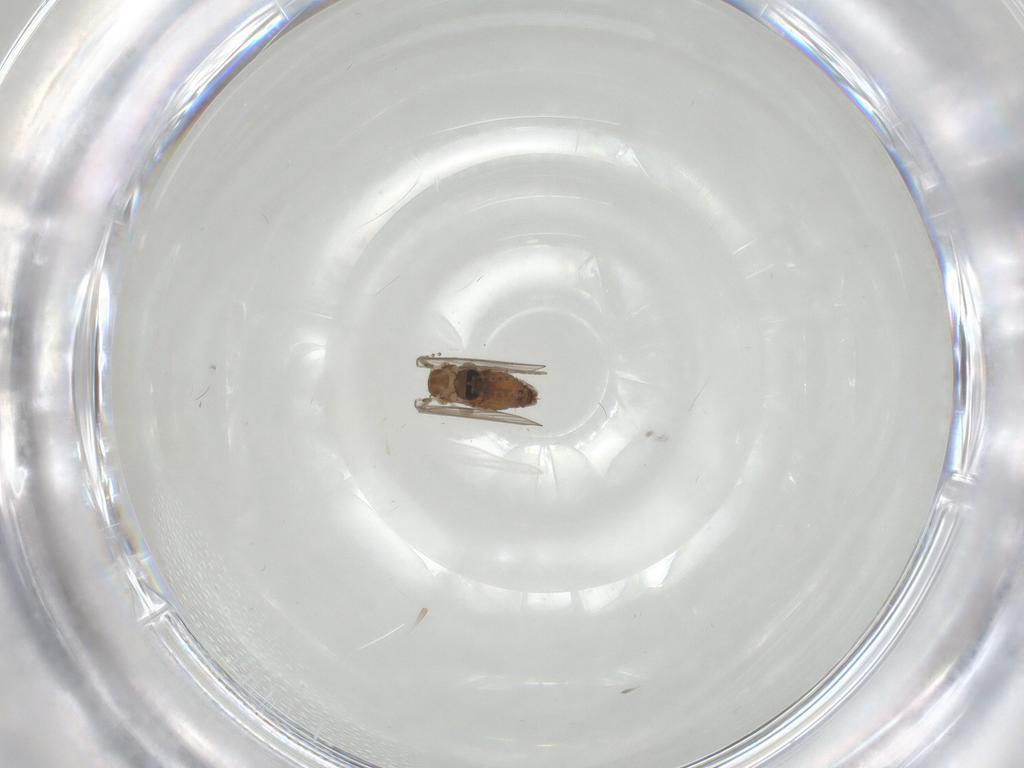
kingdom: Animalia
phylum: Arthropoda
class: Insecta
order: Diptera
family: Psychodidae
